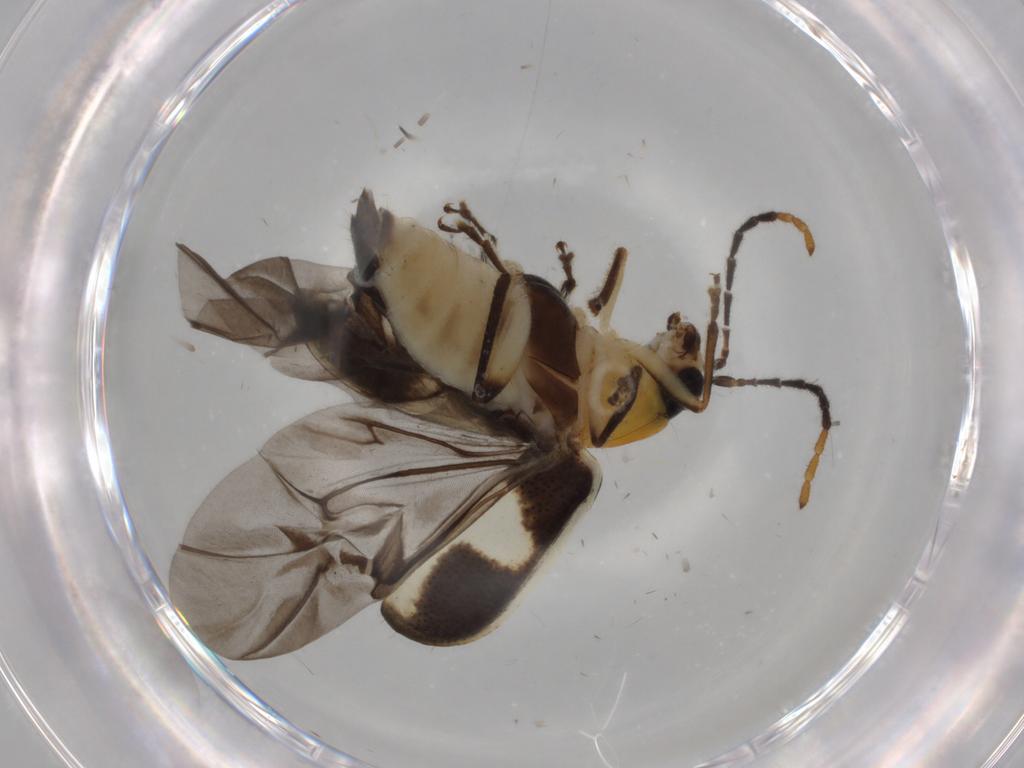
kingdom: Animalia
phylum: Arthropoda
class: Insecta
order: Coleoptera
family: Chrysomelidae
